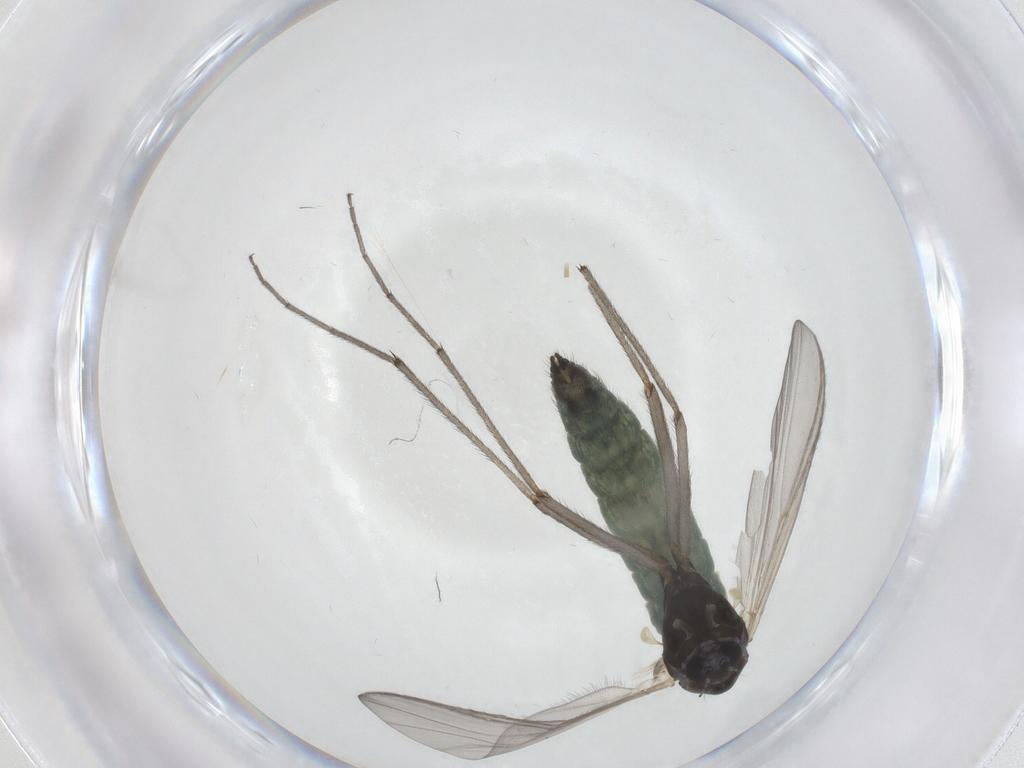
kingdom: Animalia
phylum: Arthropoda
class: Insecta
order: Diptera
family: Chironomidae
